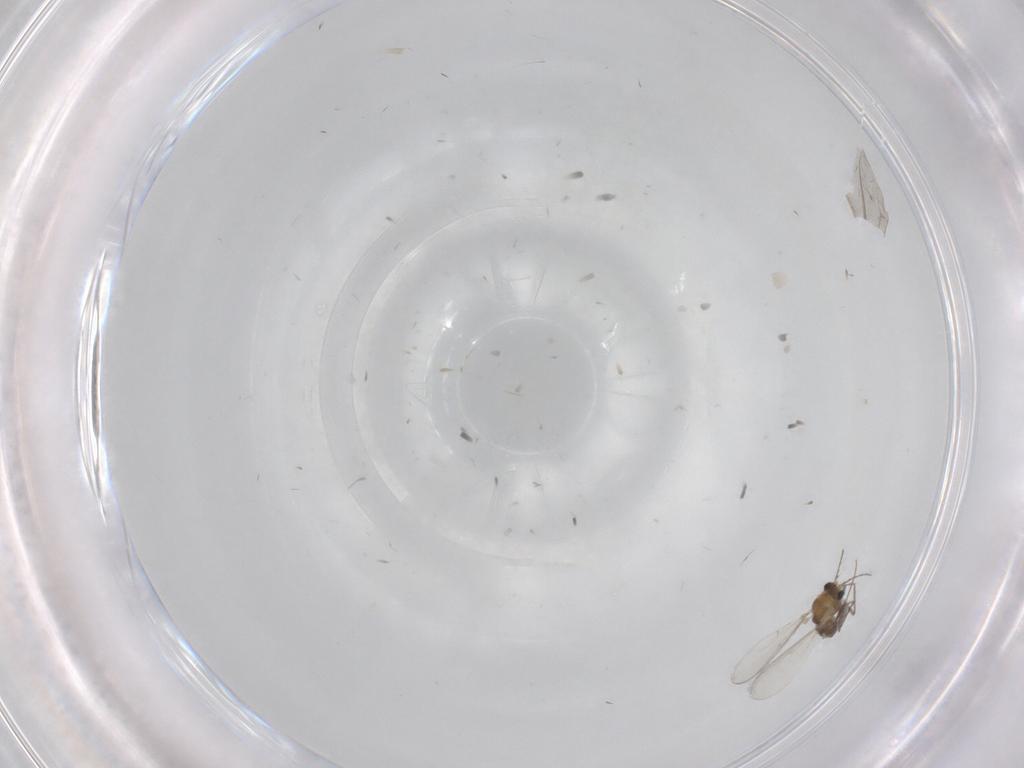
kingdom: Animalia
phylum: Arthropoda
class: Insecta
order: Diptera
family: Cecidomyiidae
